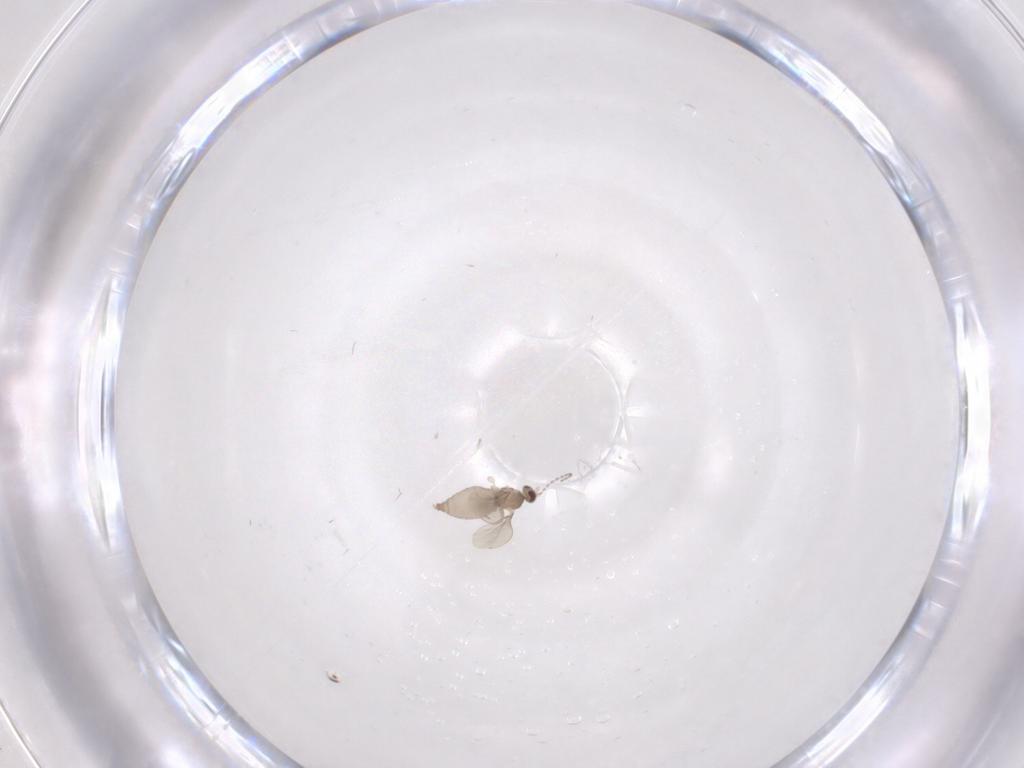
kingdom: Animalia
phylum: Arthropoda
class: Insecta
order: Diptera
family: Cecidomyiidae
